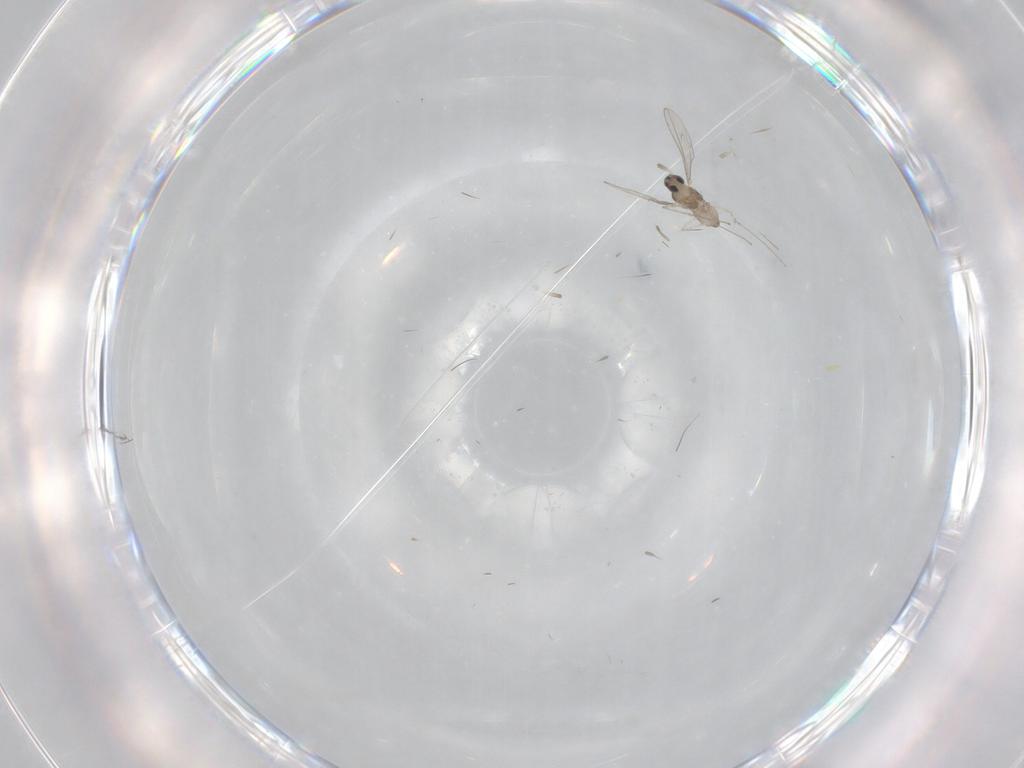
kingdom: Animalia
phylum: Arthropoda
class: Insecta
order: Diptera
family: Cecidomyiidae
